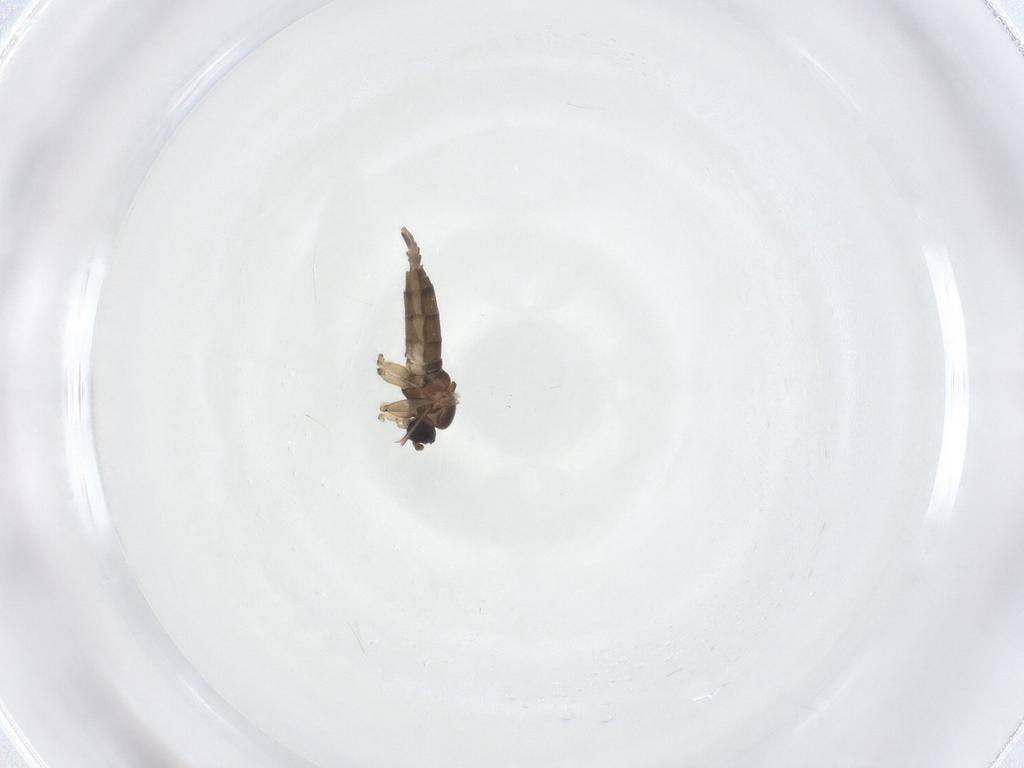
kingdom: Animalia
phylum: Arthropoda
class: Insecta
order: Diptera
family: Sciaridae
